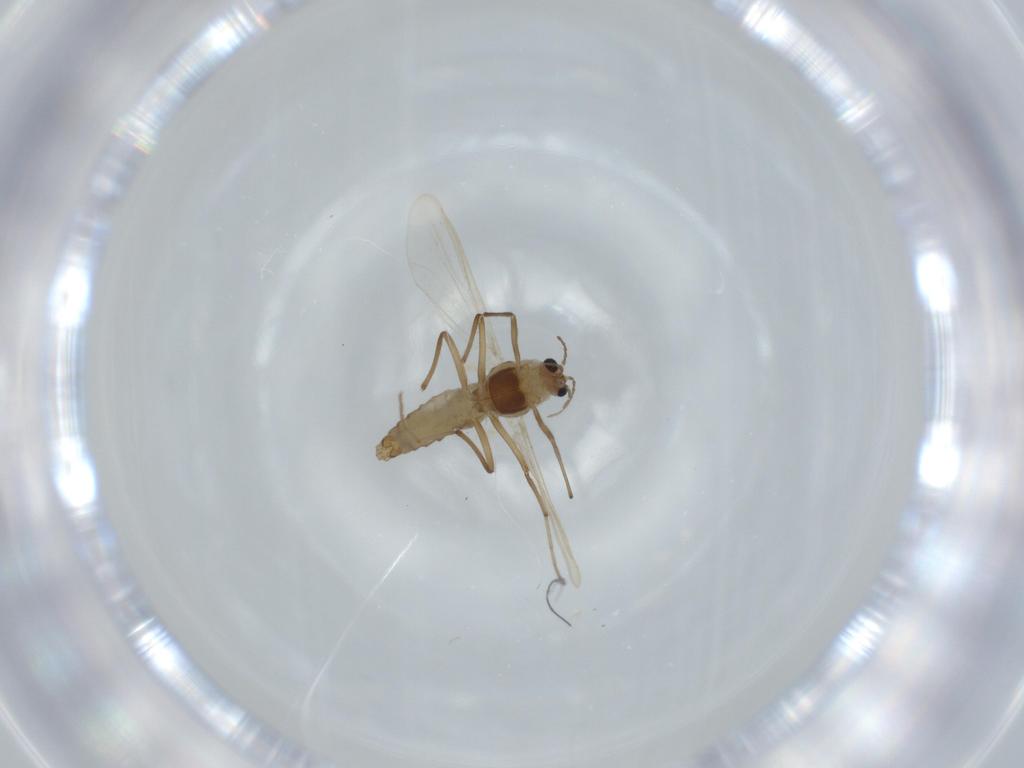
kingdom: Animalia
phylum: Arthropoda
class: Insecta
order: Diptera
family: Chironomidae
